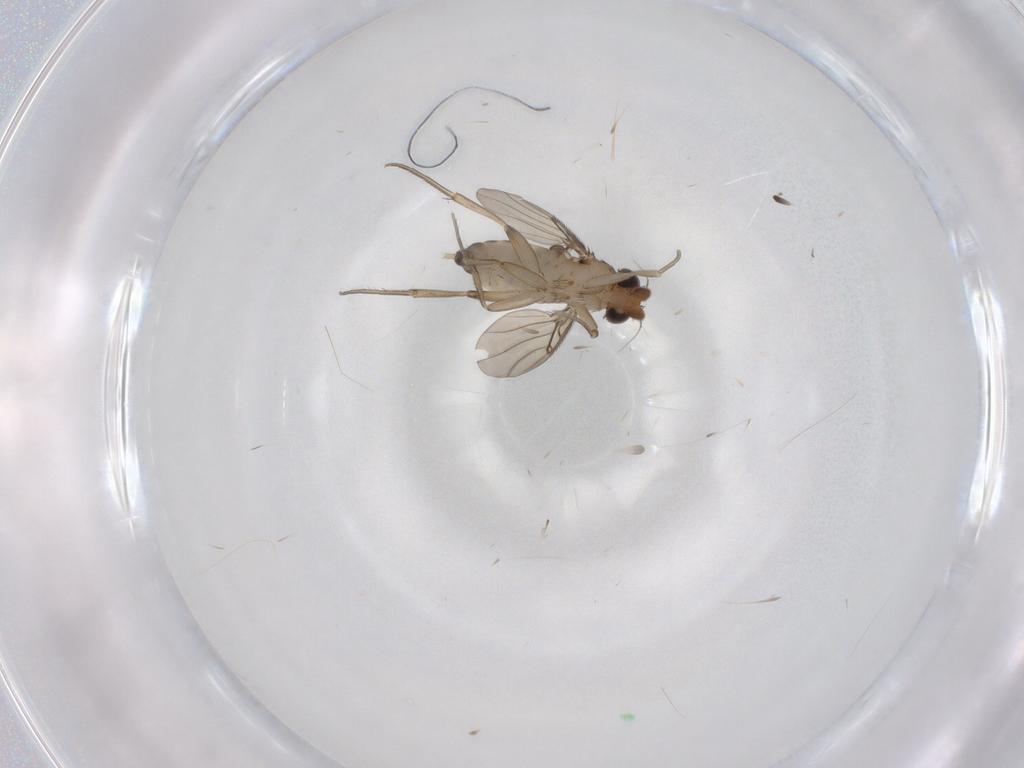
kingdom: Animalia
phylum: Arthropoda
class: Insecta
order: Diptera
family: Phoridae
